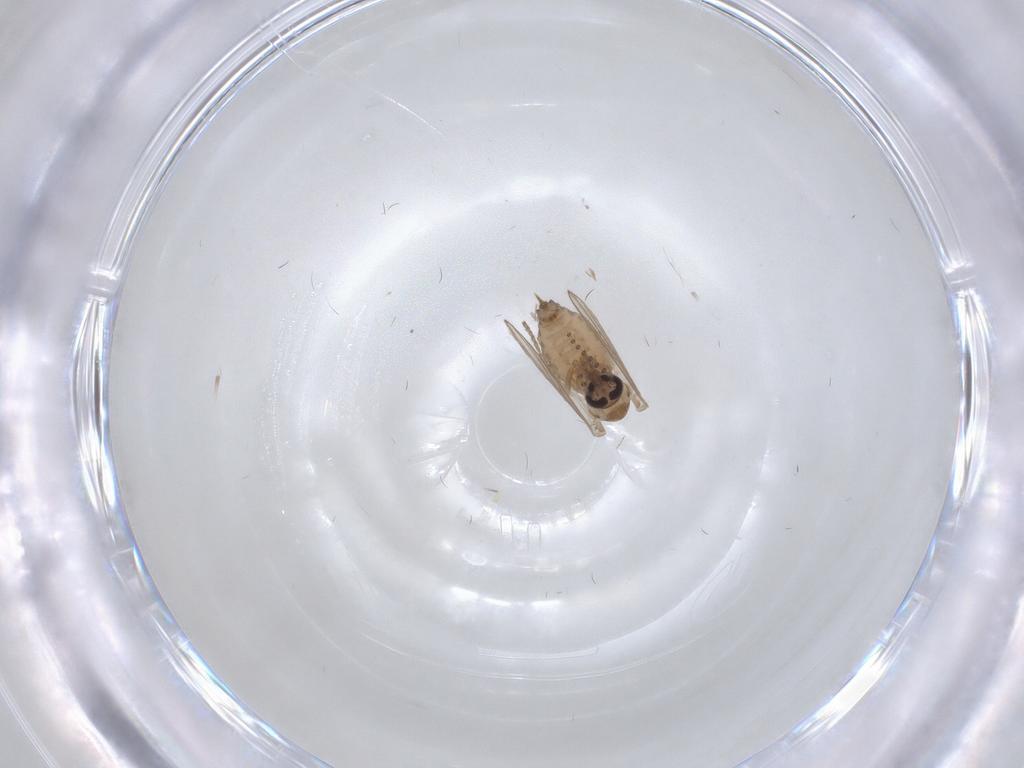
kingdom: Animalia
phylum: Arthropoda
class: Insecta
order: Diptera
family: Psychodidae
